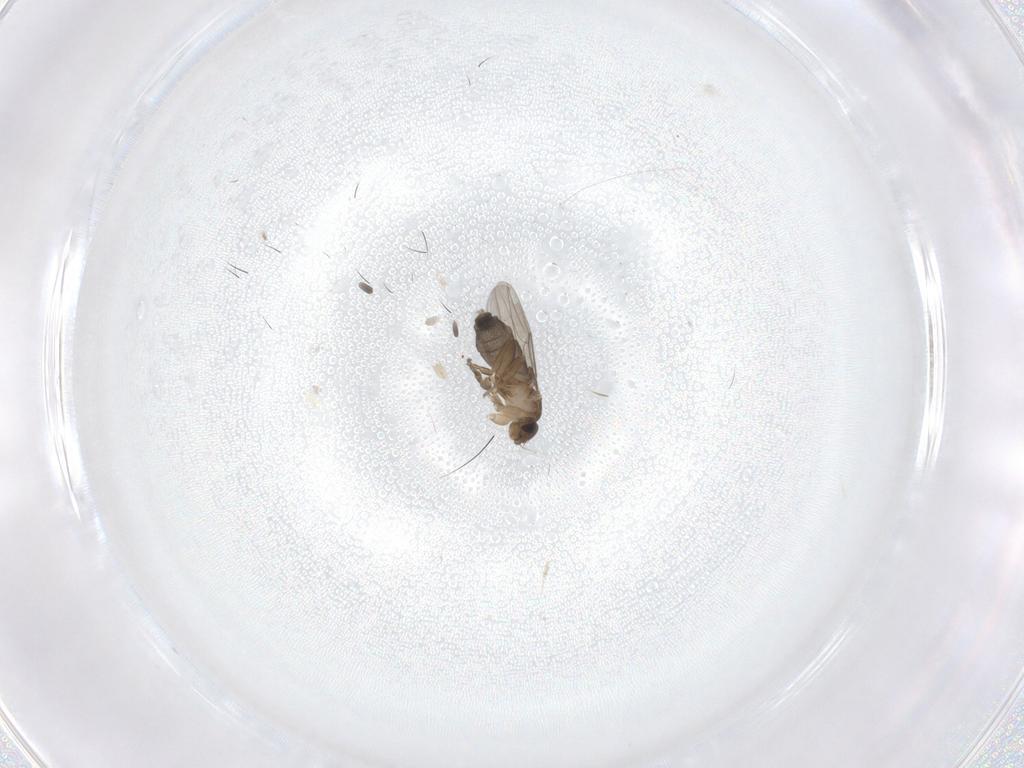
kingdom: Animalia
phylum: Arthropoda
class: Insecta
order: Diptera
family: Phoridae
